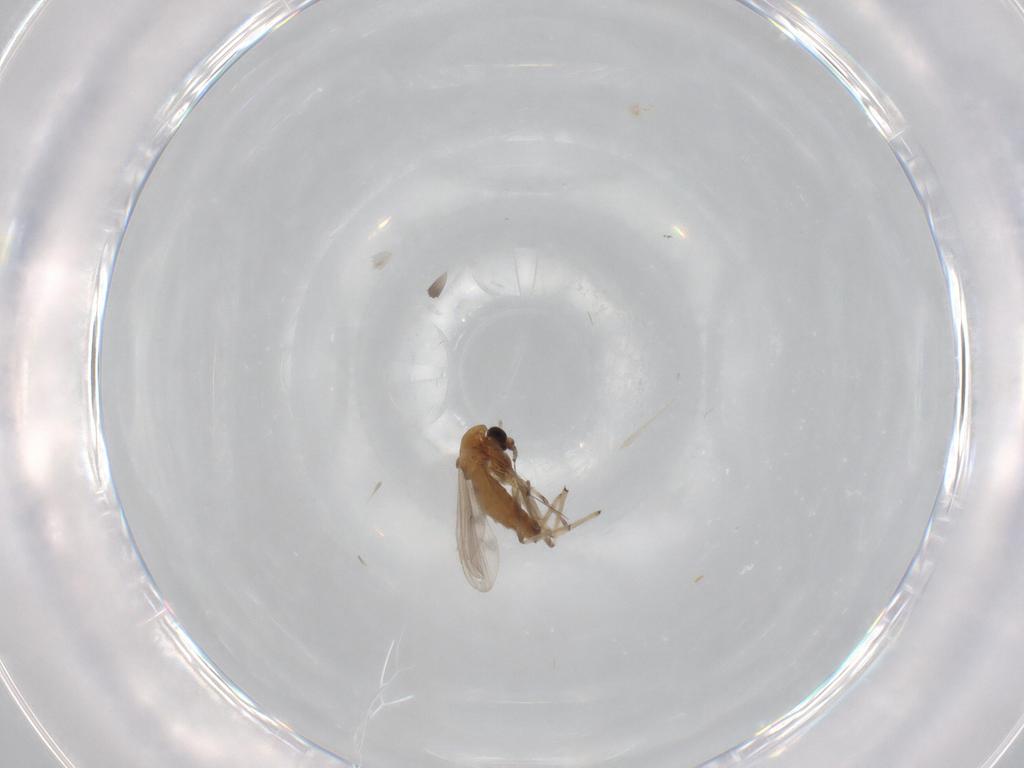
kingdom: Animalia
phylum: Arthropoda
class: Insecta
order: Diptera
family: Chironomidae
